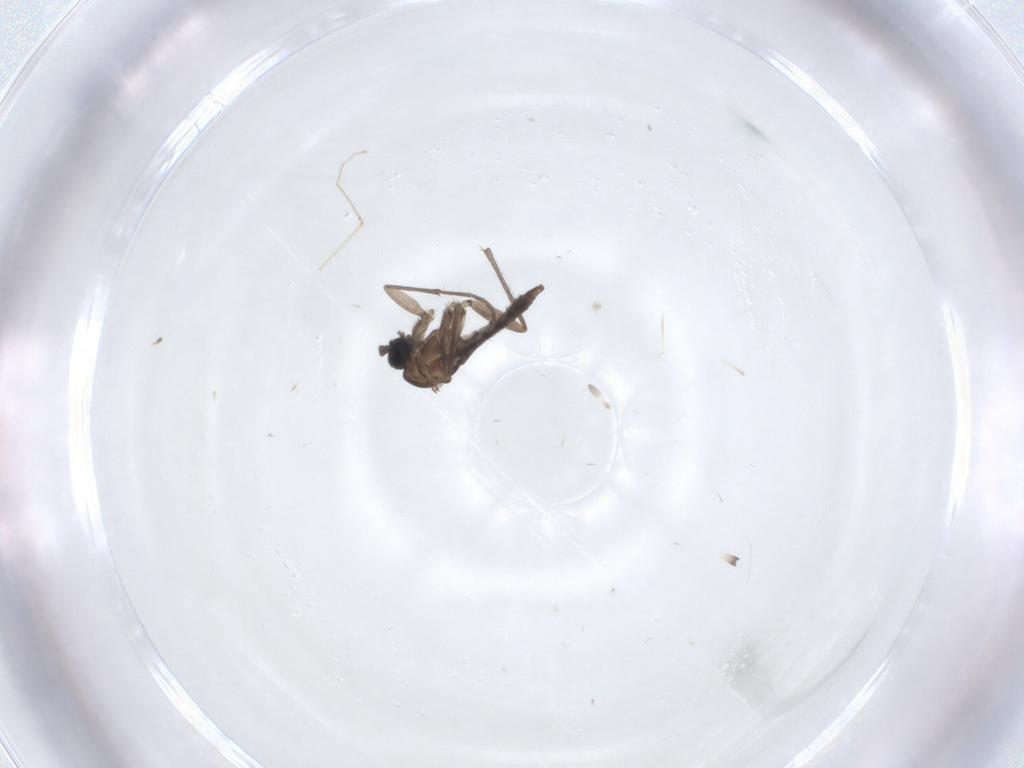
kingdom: Animalia
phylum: Arthropoda
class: Insecta
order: Diptera
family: Cecidomyiidae
